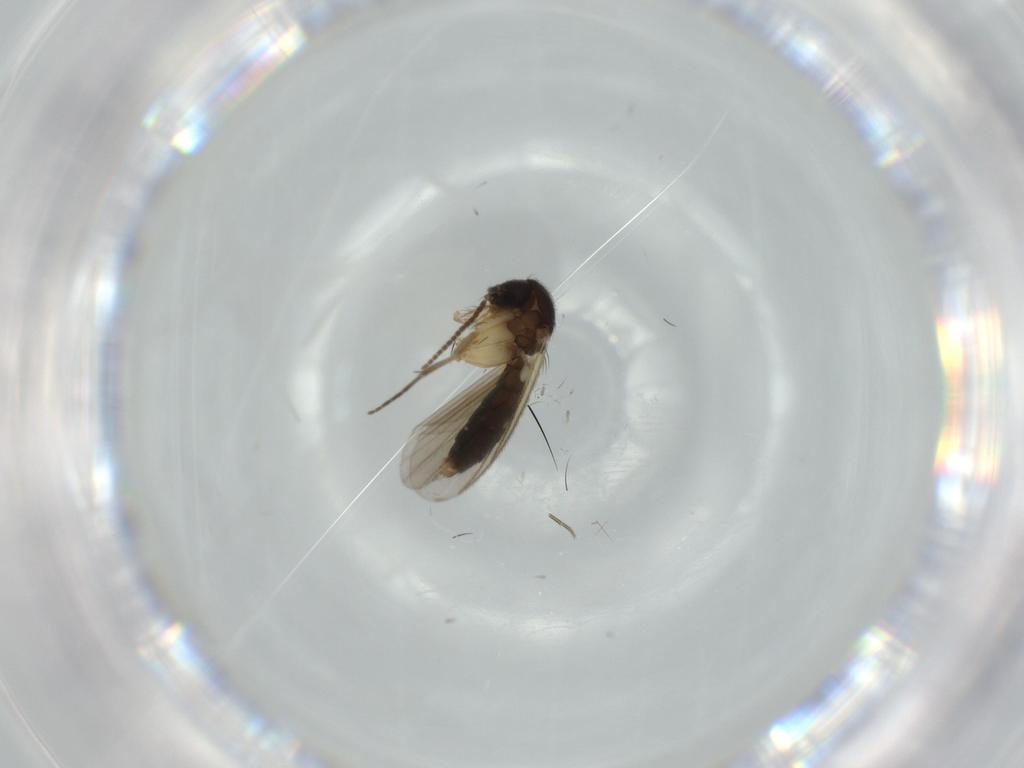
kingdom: Animalia
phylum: Arthropoda
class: Insecta
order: Diptera
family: Mycetophilidae
